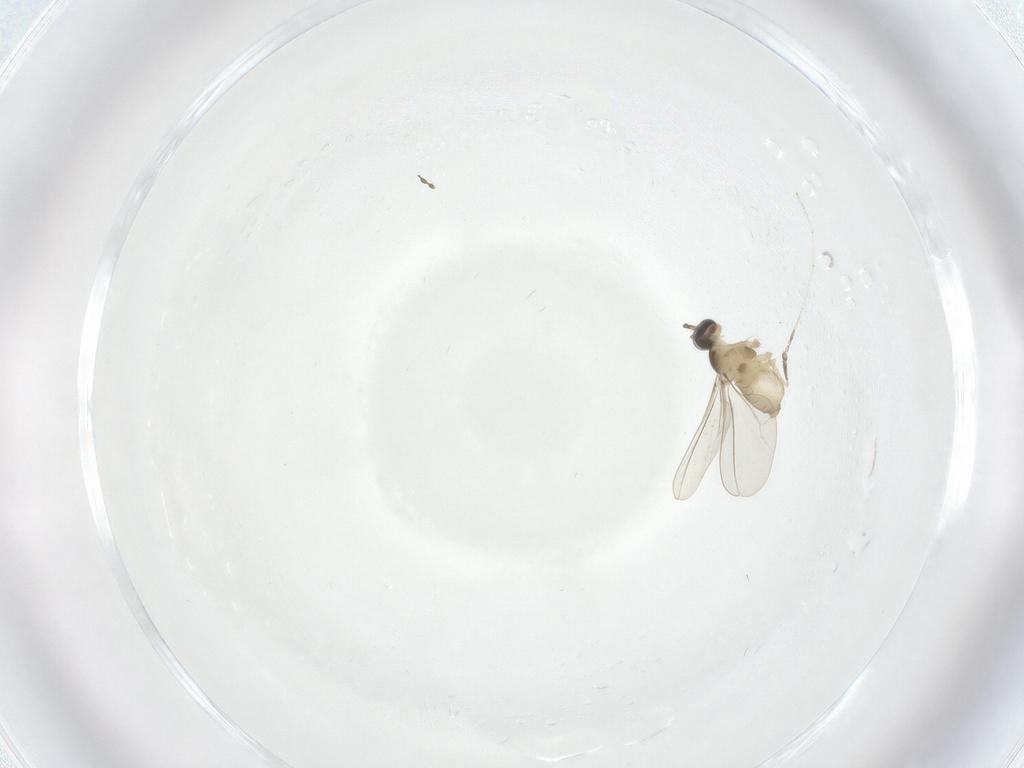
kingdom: Animalia
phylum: Arthropoda
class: Insecta
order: Diptera
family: Cecidomyiidae
